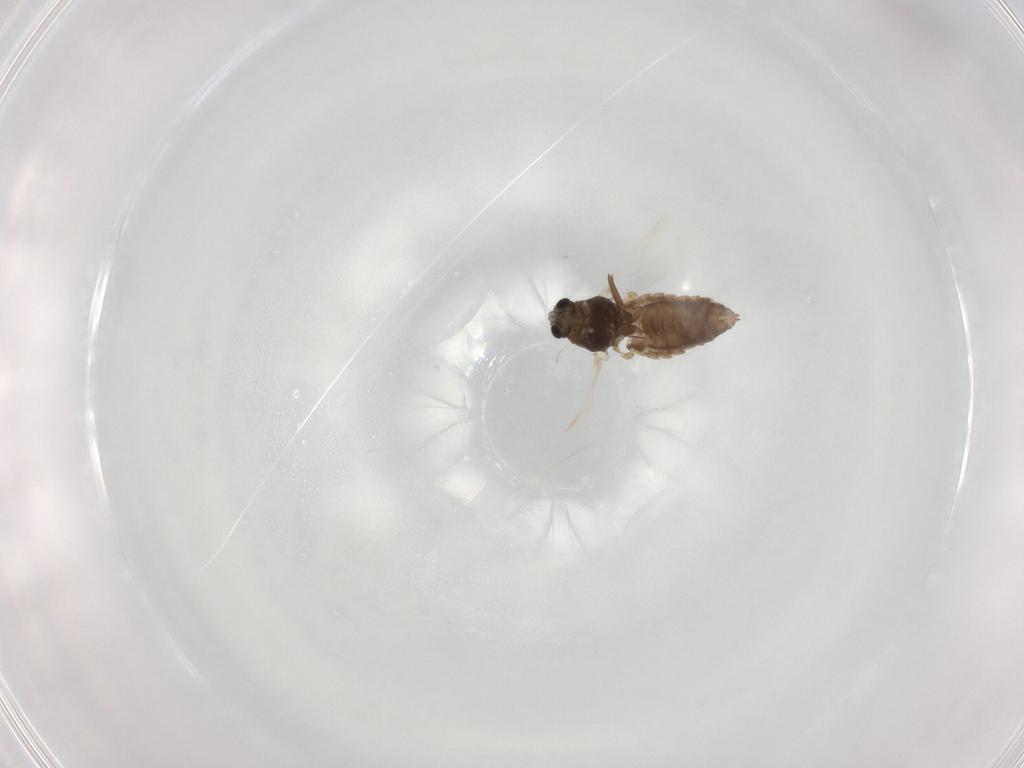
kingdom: Animalia
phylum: Arthropoda
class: Insecta
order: Diptera
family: Chironomidae
